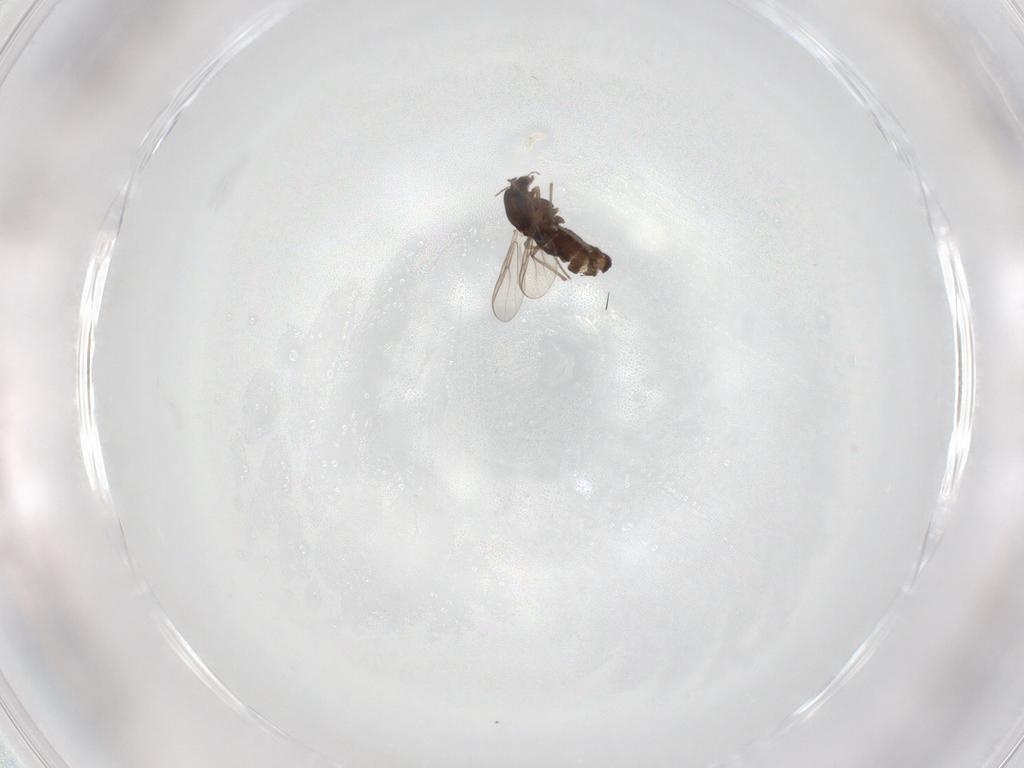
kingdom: Animalia
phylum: Arthropoda
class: Insecta
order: Diptera
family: Chironomidae
